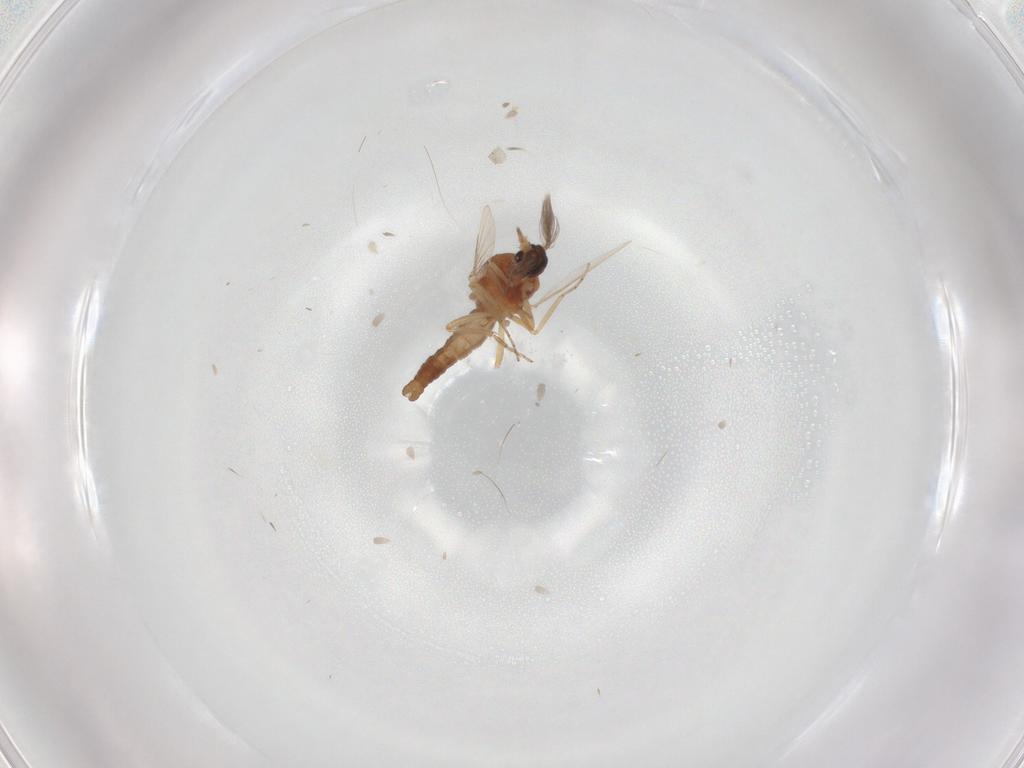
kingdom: Animalia
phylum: Arthropoda
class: Insecta
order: Diptera
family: Ceratopogonidae
